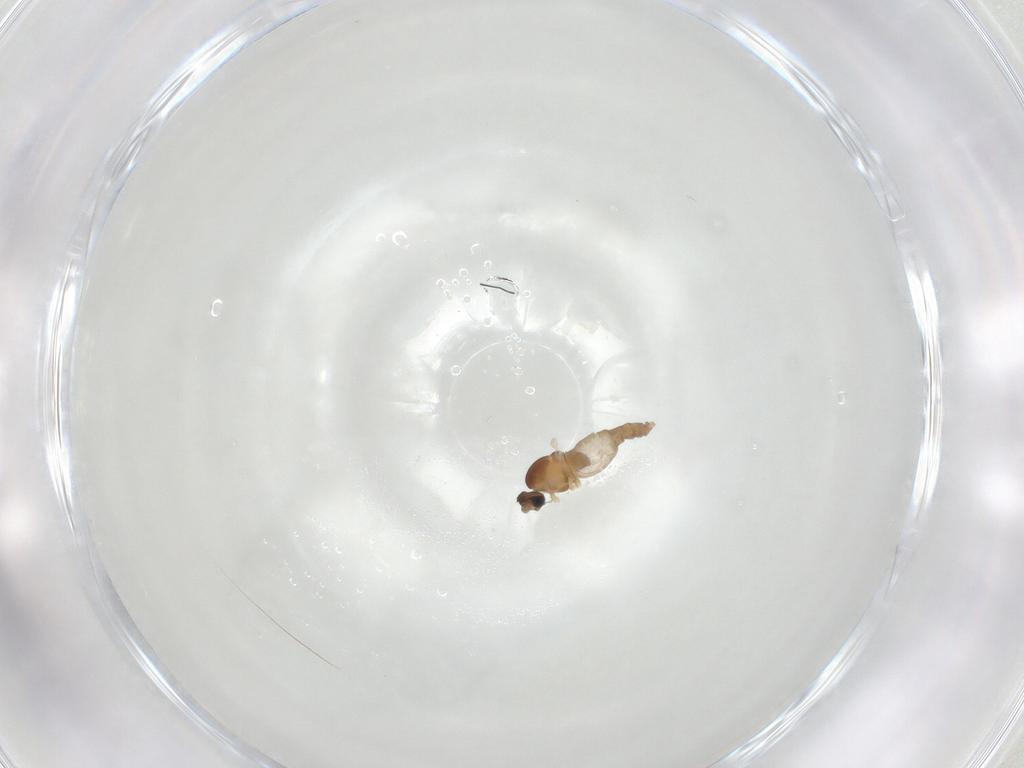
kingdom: Animalia
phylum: Arthropoda
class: Insecta
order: Diptera
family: Cecidomyiidae
